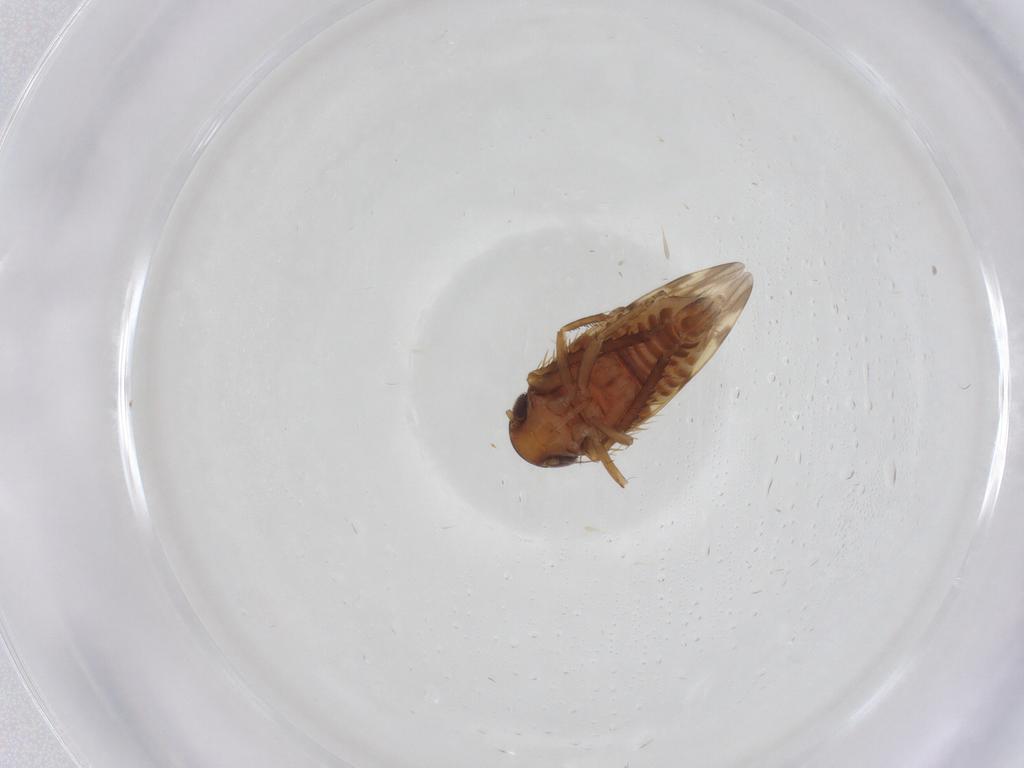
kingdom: Animalia
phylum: Arthropoda
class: Insecta
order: Hemiptera
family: Cicadellidae
